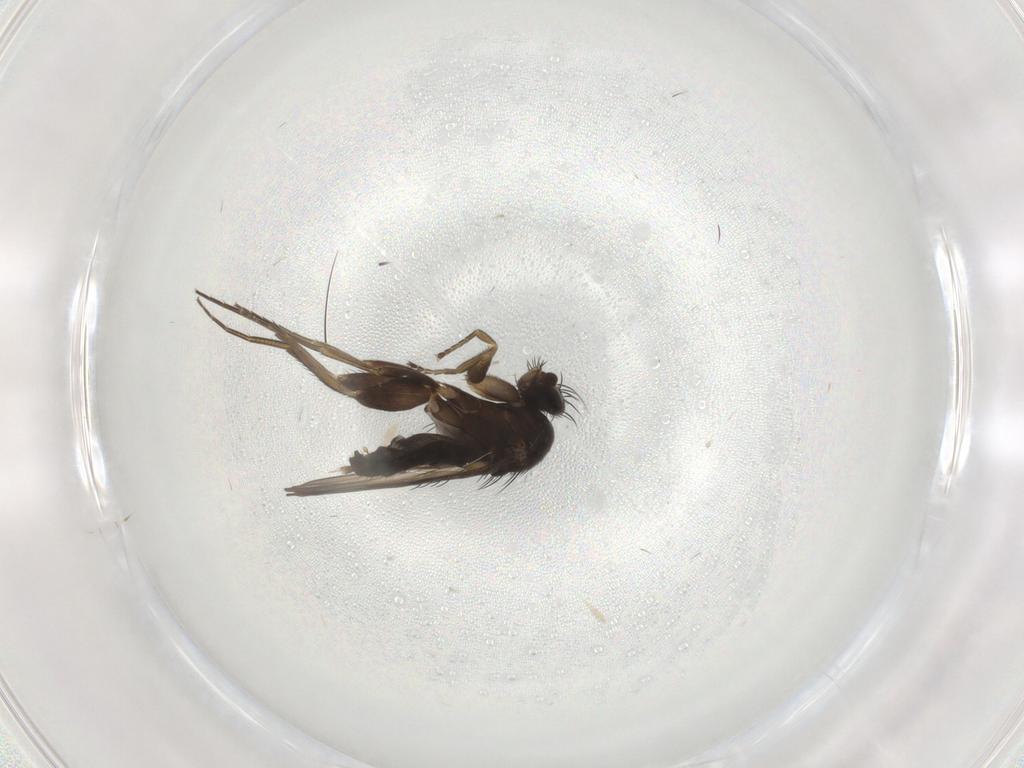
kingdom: Animalia
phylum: Arthropoda
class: Insecta
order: Diptera
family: Phoridae
